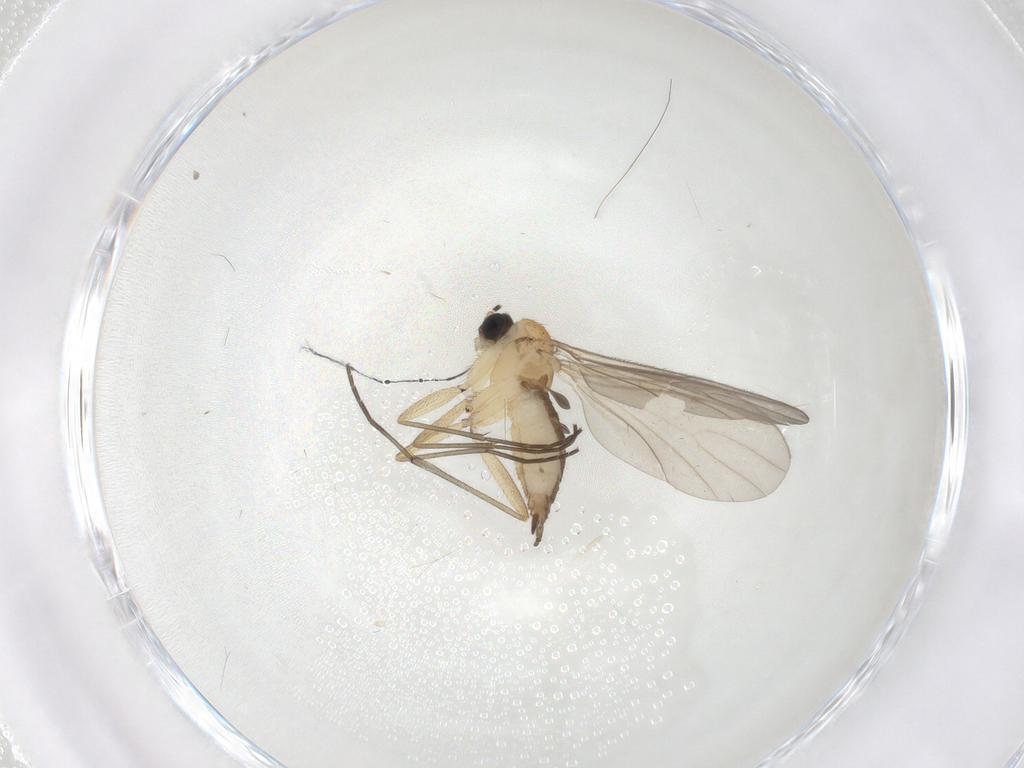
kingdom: Animalia
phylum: Arthropoda
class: Insecta
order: Diptera
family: Sciaridae
